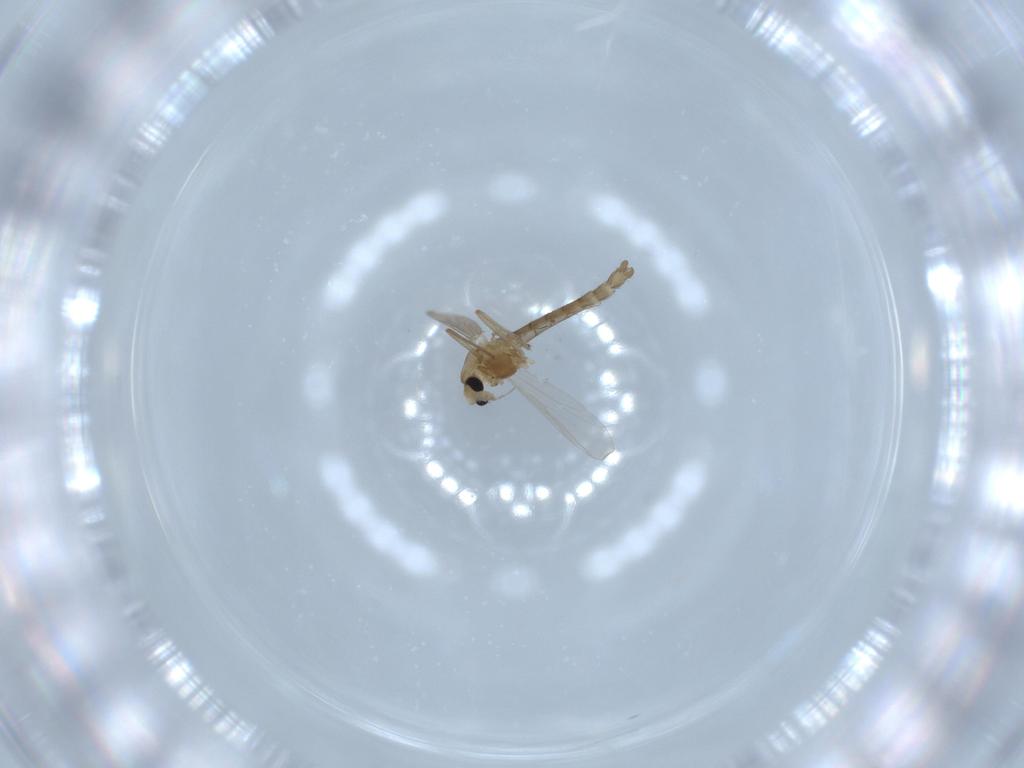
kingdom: Animalia
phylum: Arthropoda
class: Insecta
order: Diptera
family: Chironomidae
